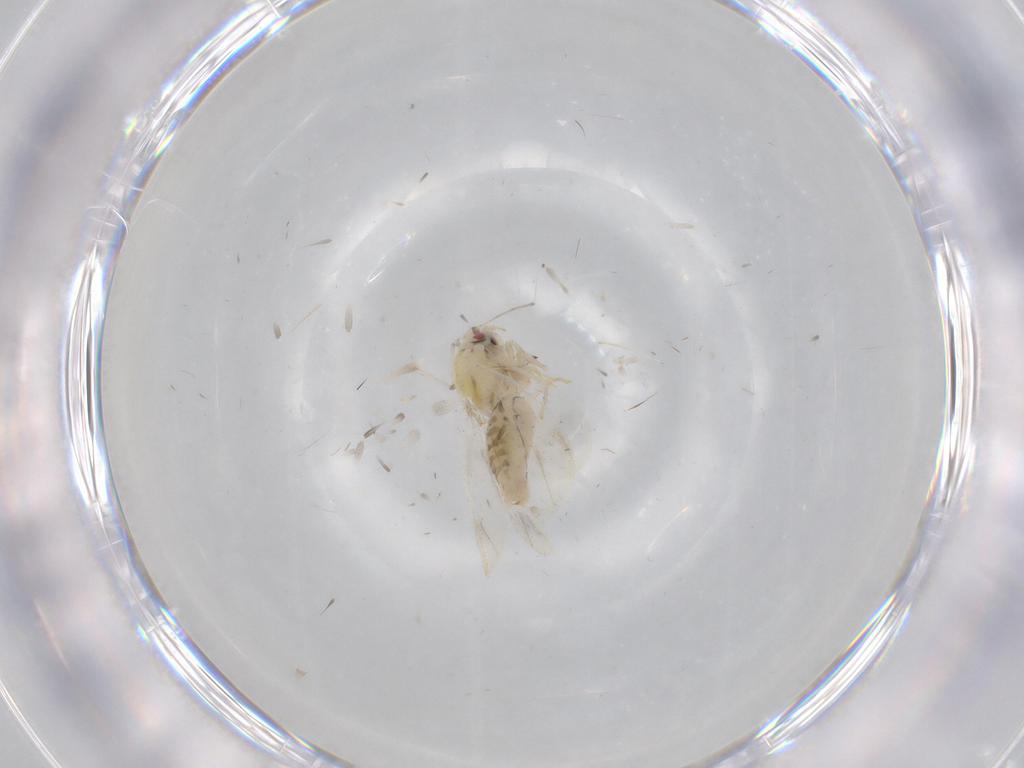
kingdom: Animalia
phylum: Arthropoda
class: Insecta
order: Hemiptera
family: Aleyrodidae
